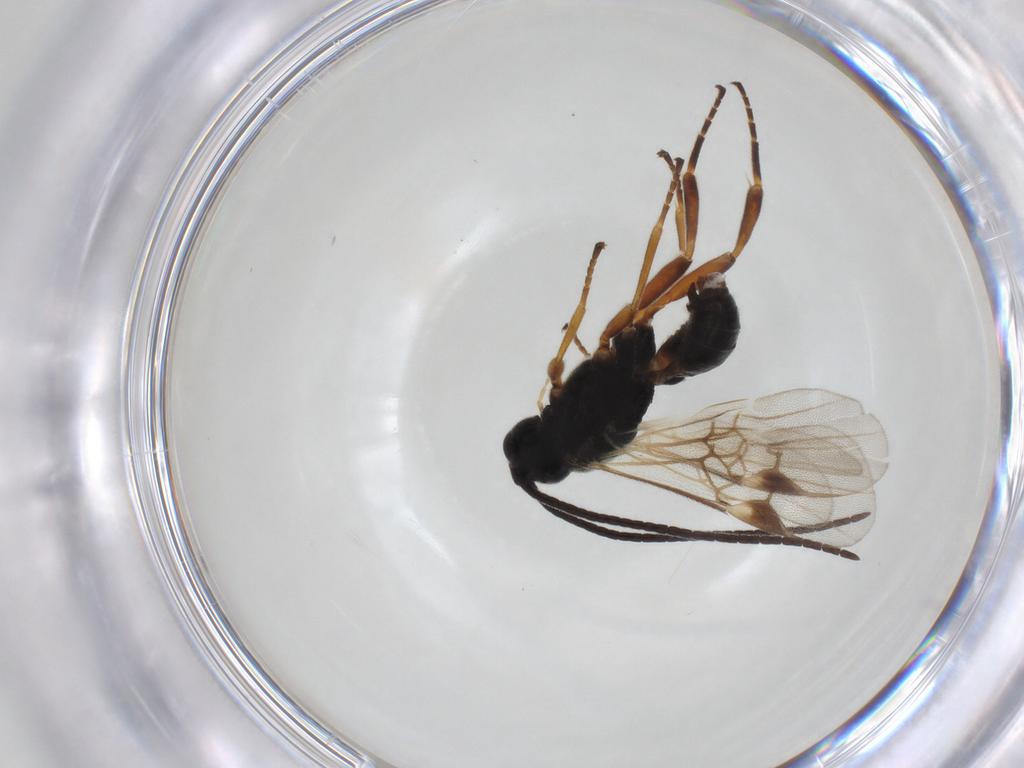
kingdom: Animalia
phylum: Arthropoda
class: Insecta
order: Hymenoptera
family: Braconidae
